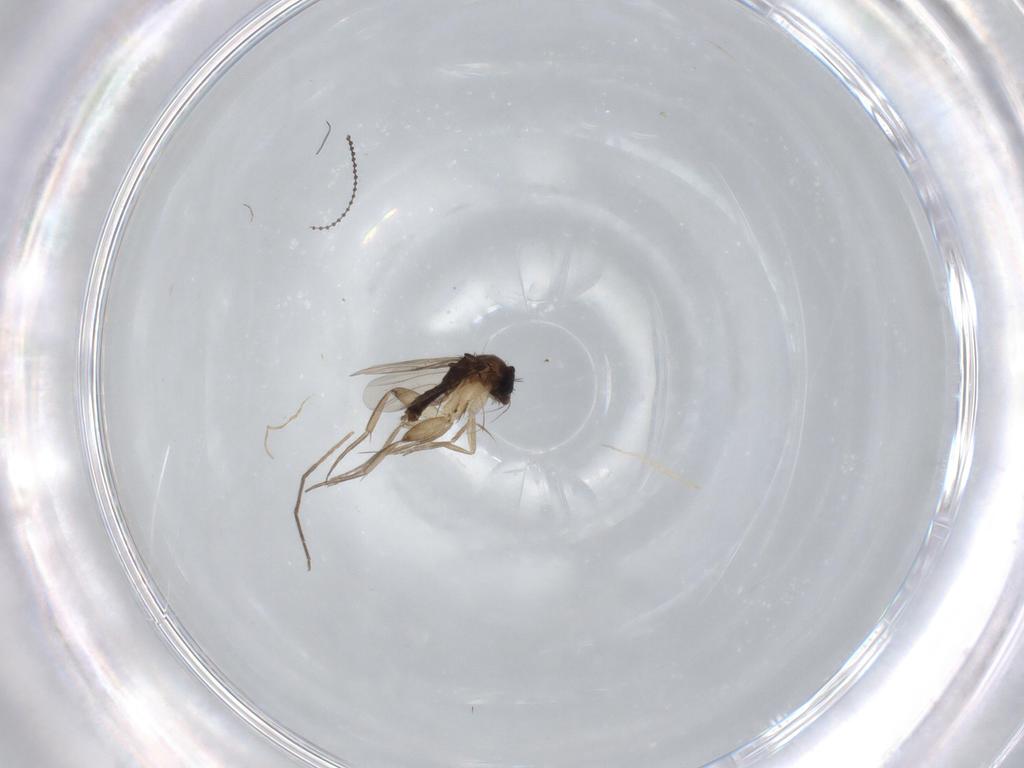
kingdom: Animalia
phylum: Arthropoda
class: Insecta
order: Diptera
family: Phoridae
